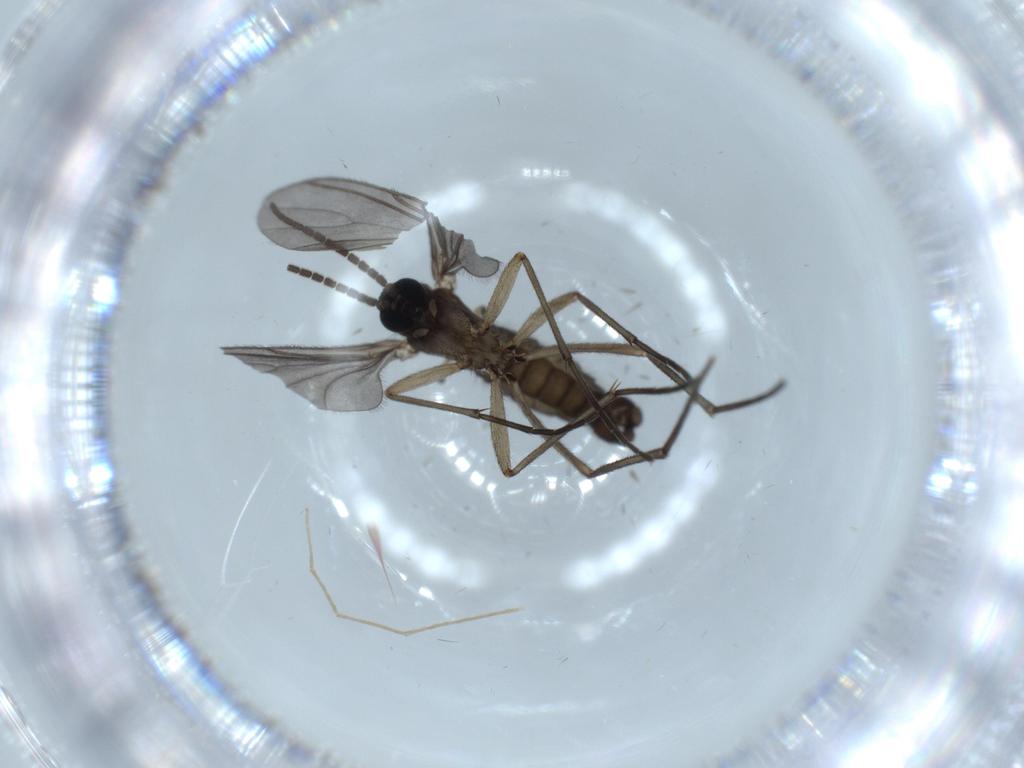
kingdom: Animalia
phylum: Arthropoda
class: Insecta
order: Diptera
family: Sciaridae
